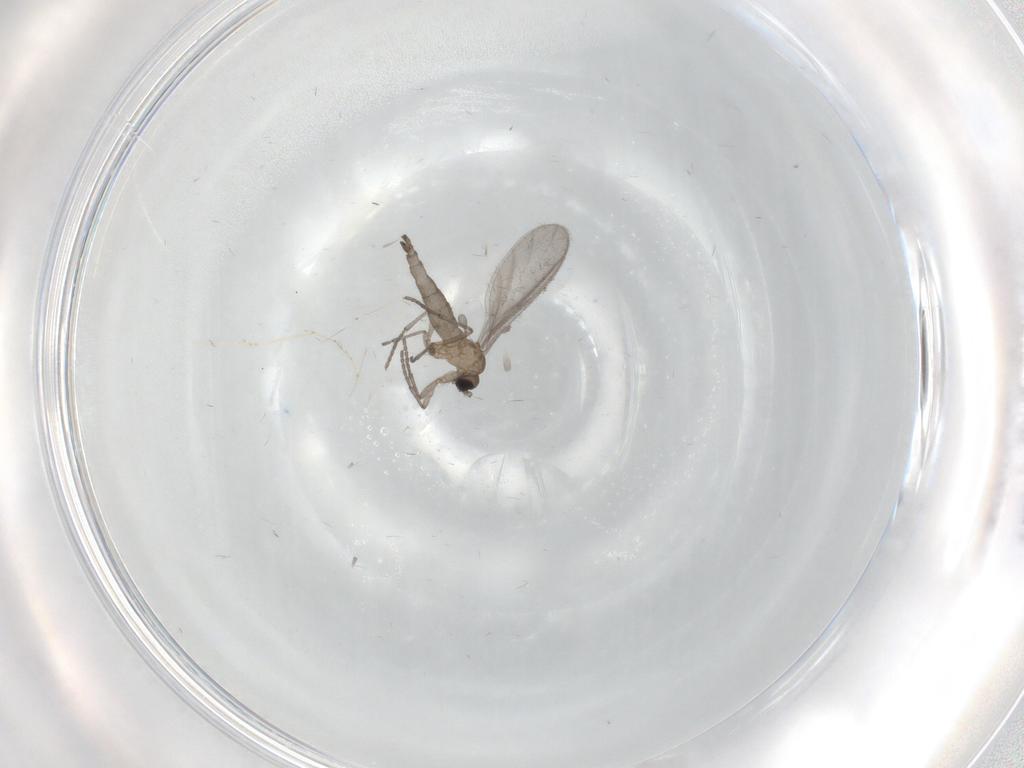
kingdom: Animalia
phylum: Arthropoda
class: Insecta
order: Diptera
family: Sciaridae
